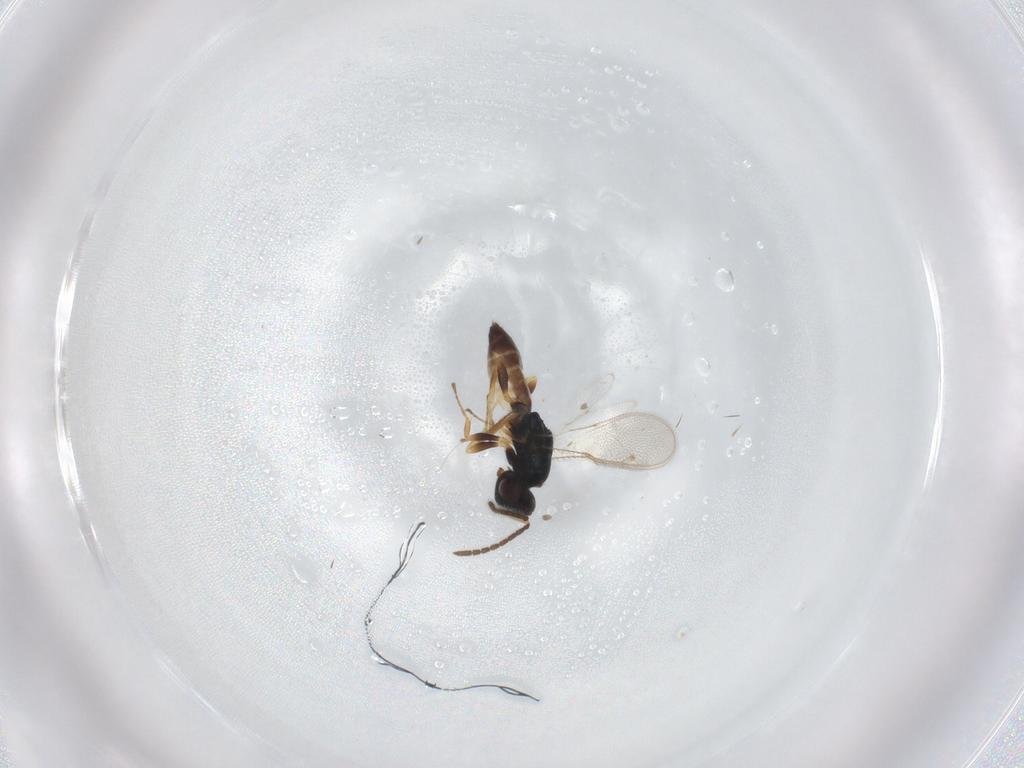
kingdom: Animalia
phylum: Arthropoda
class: Insecta
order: Hymenoptera
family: Pteromalidae
